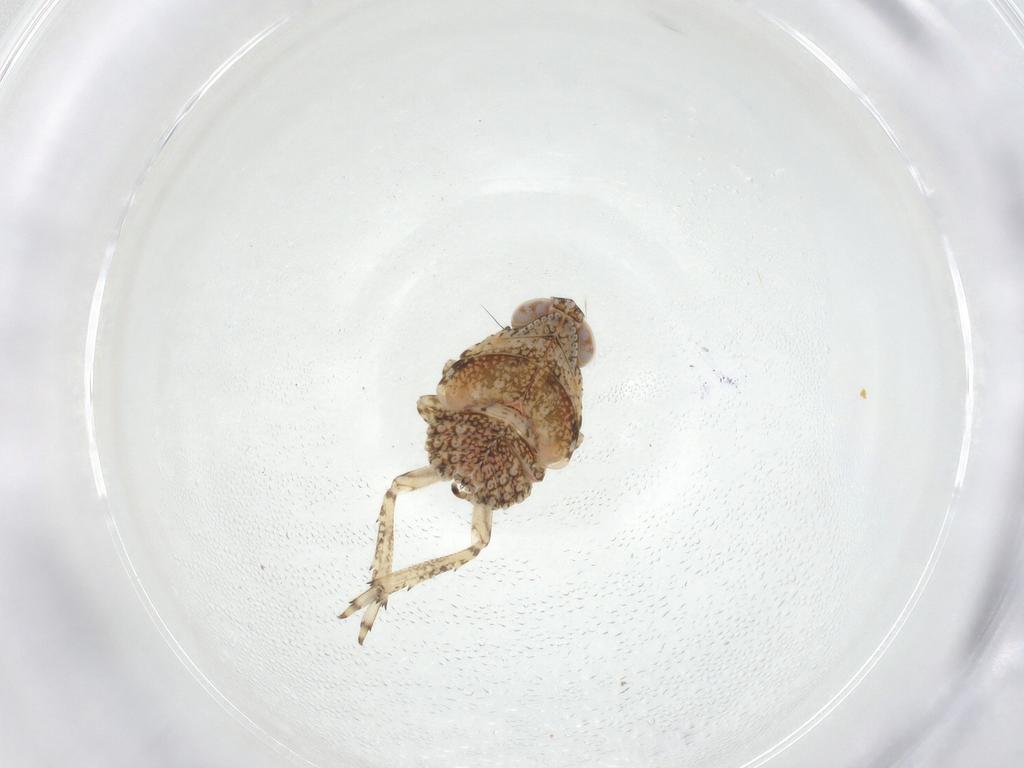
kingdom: Animalia
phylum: Arthropoda
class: Insecta
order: Hemiptera
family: Issidae
